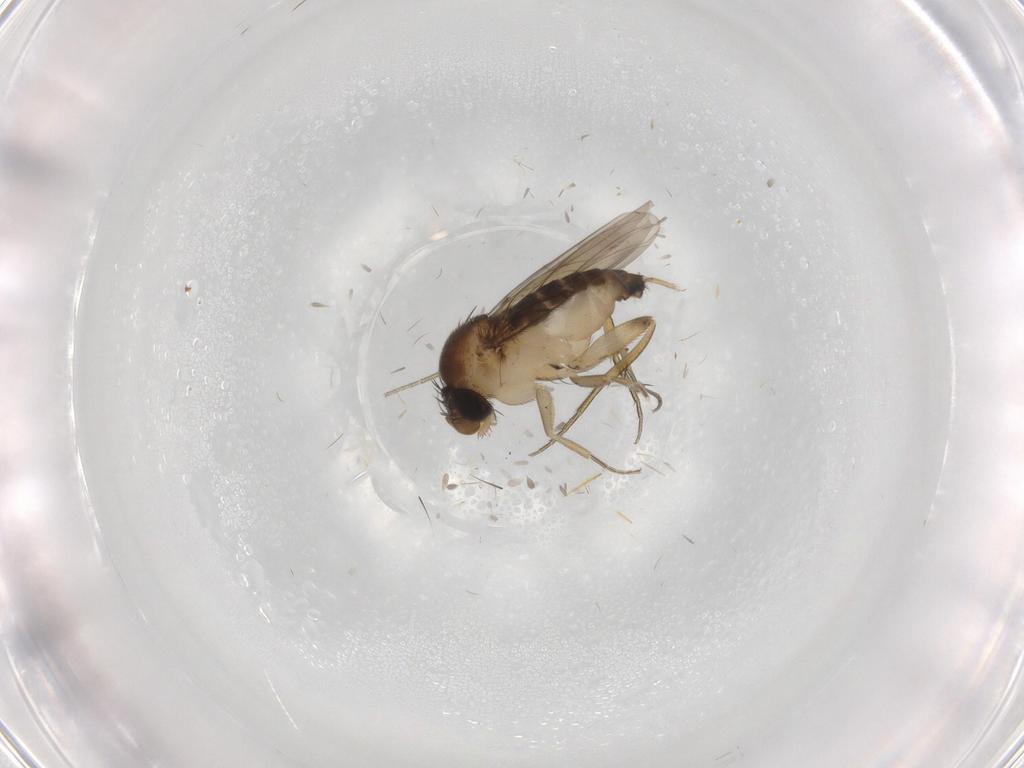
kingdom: Animalia
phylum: Arthropoda
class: Insecta
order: Diptera
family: Phoridae
